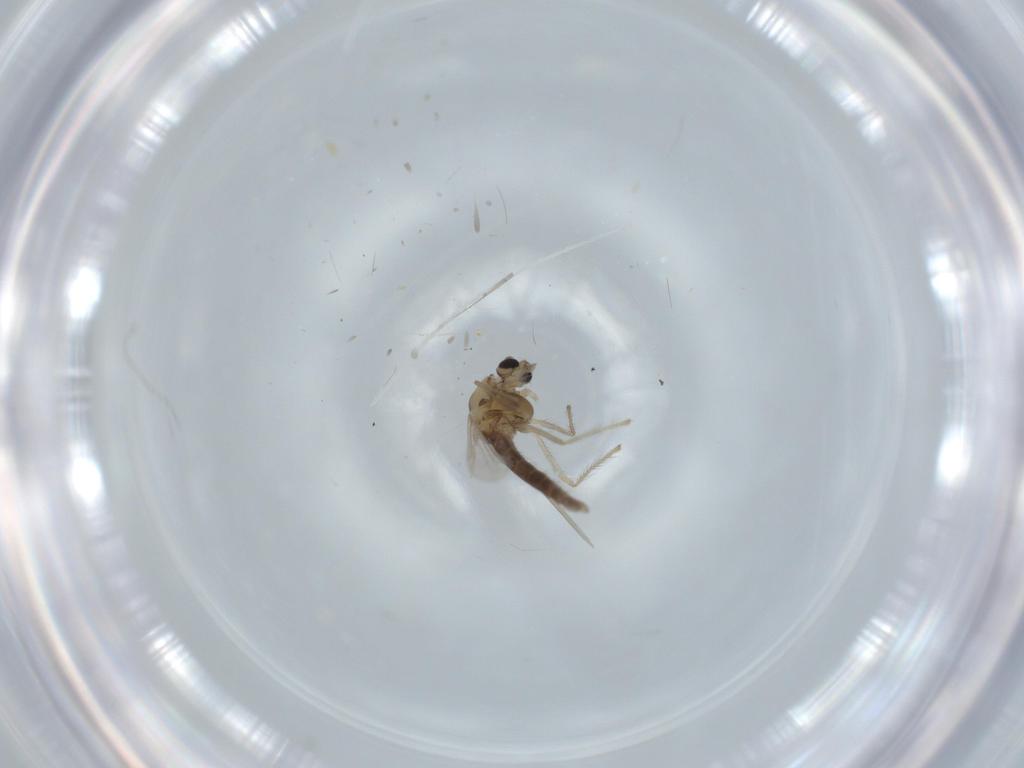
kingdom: Animalia
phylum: Arthropoda
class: Insecta
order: Diptera
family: Chironomidae
